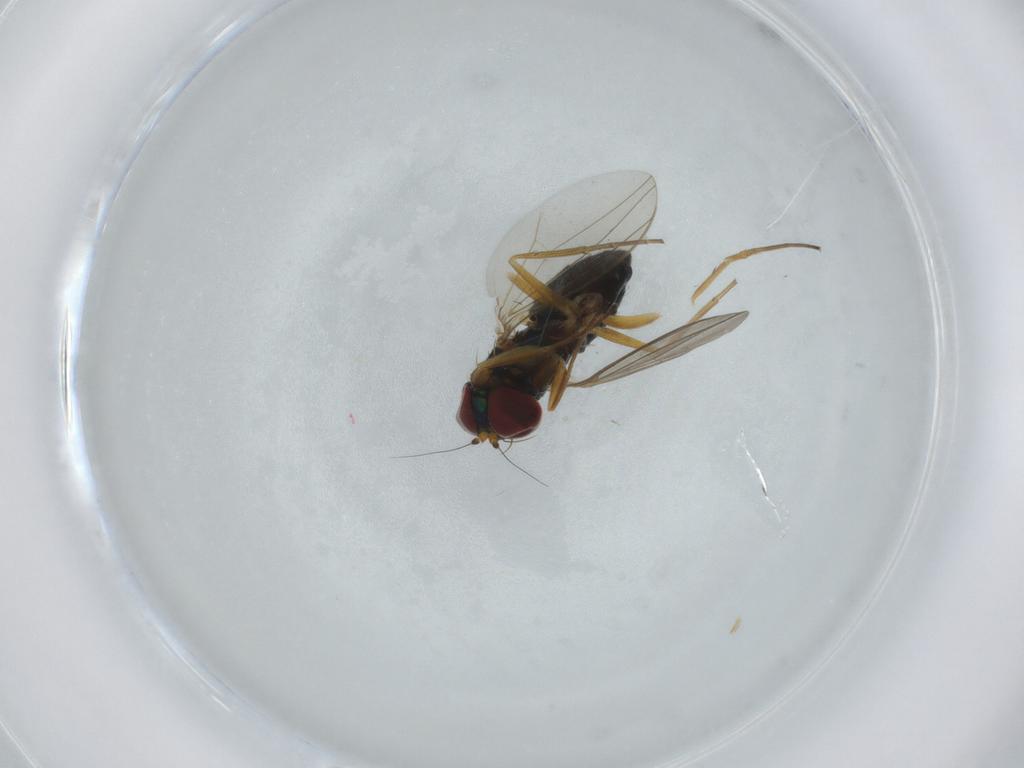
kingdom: Animalia
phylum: Arthropoda
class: Insecta
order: Diptera
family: Dolichopodidae
